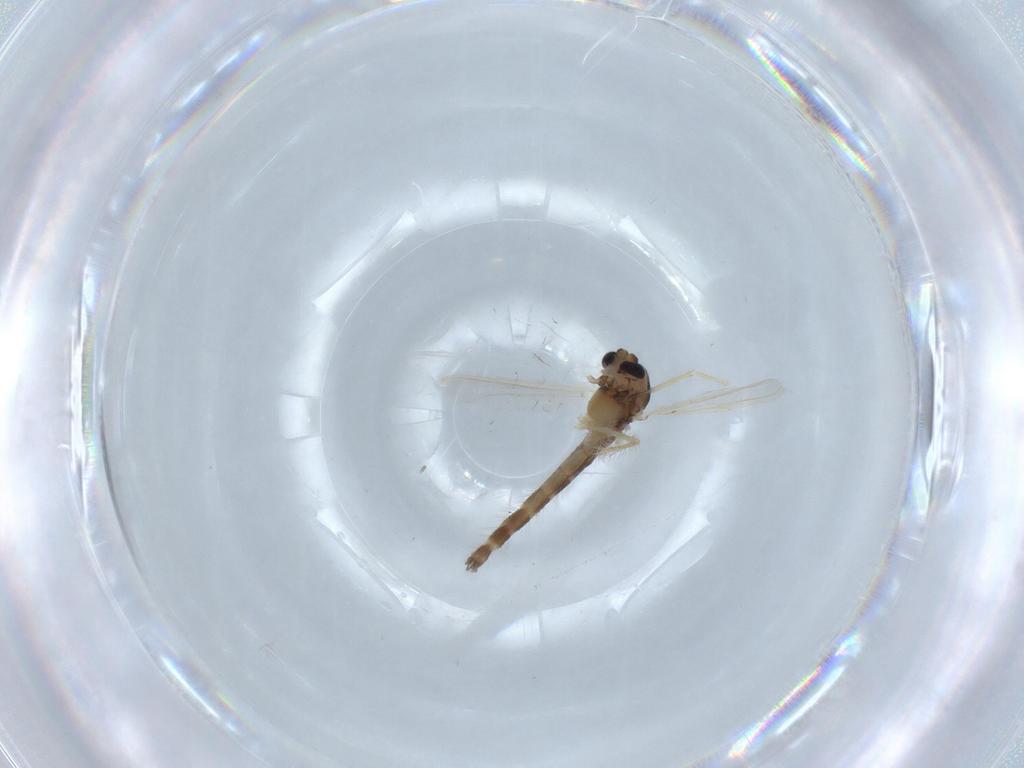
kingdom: Animalia
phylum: Arthropoda
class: Insecta
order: Diptera
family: Chironomidae
